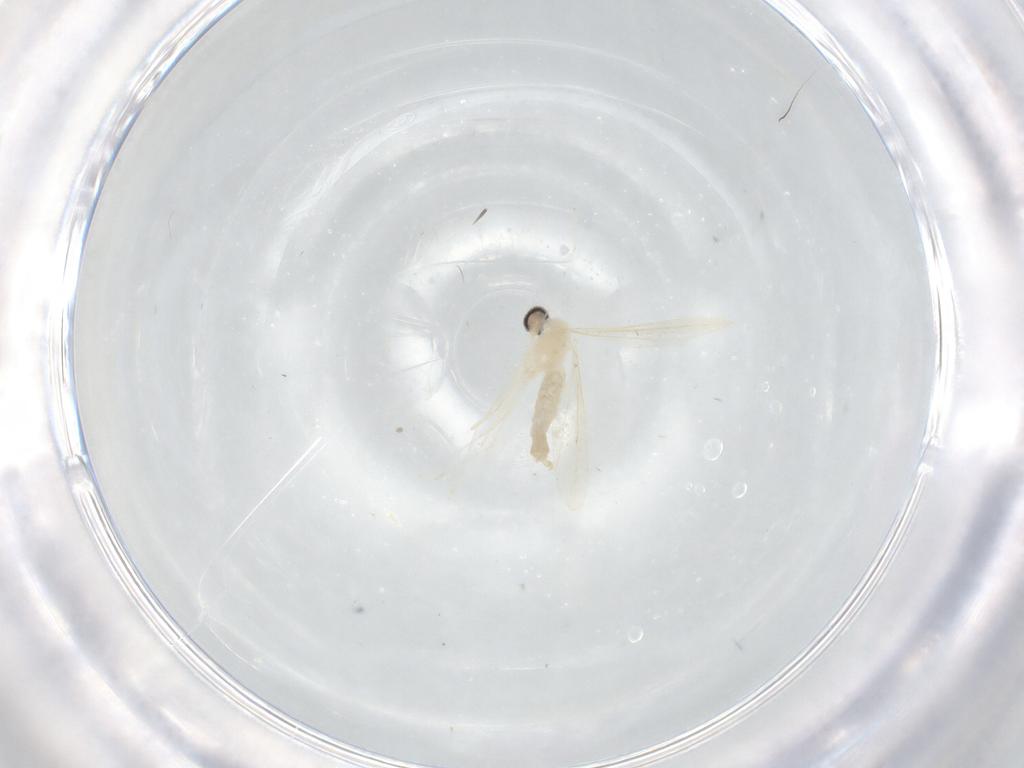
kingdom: Animalia
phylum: Arthropoda
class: Insecta
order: Diptera
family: Cecidomyiidae
